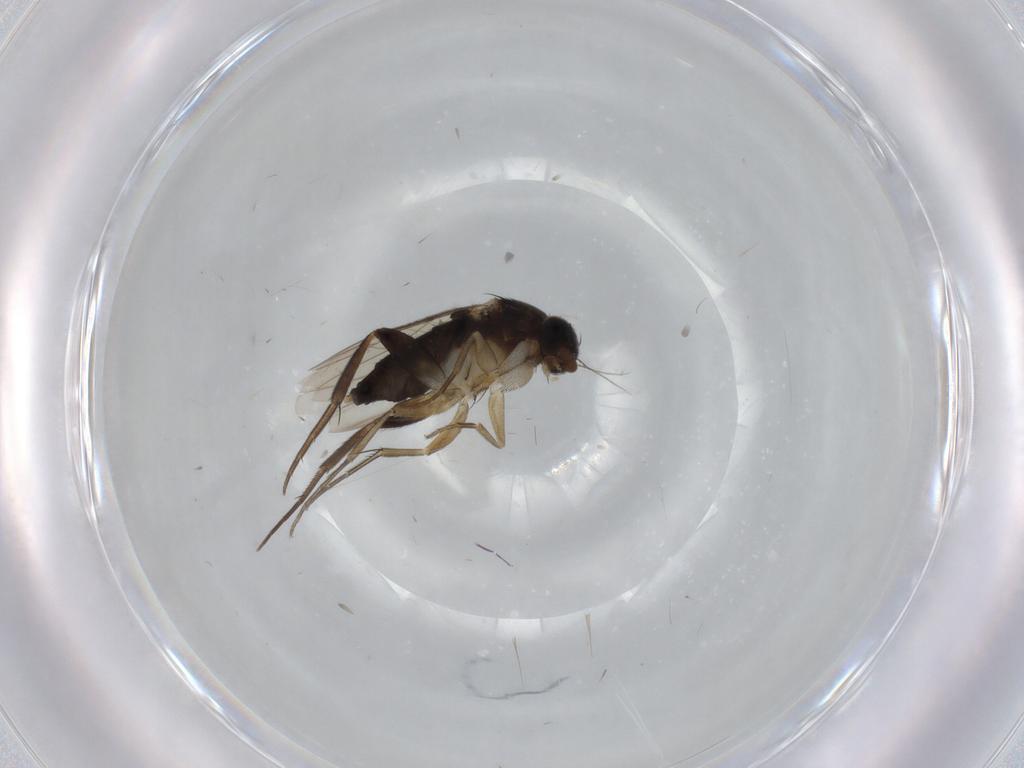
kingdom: Animalia
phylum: Arthropoda
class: Insecta
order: Diptera
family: Phoridae
